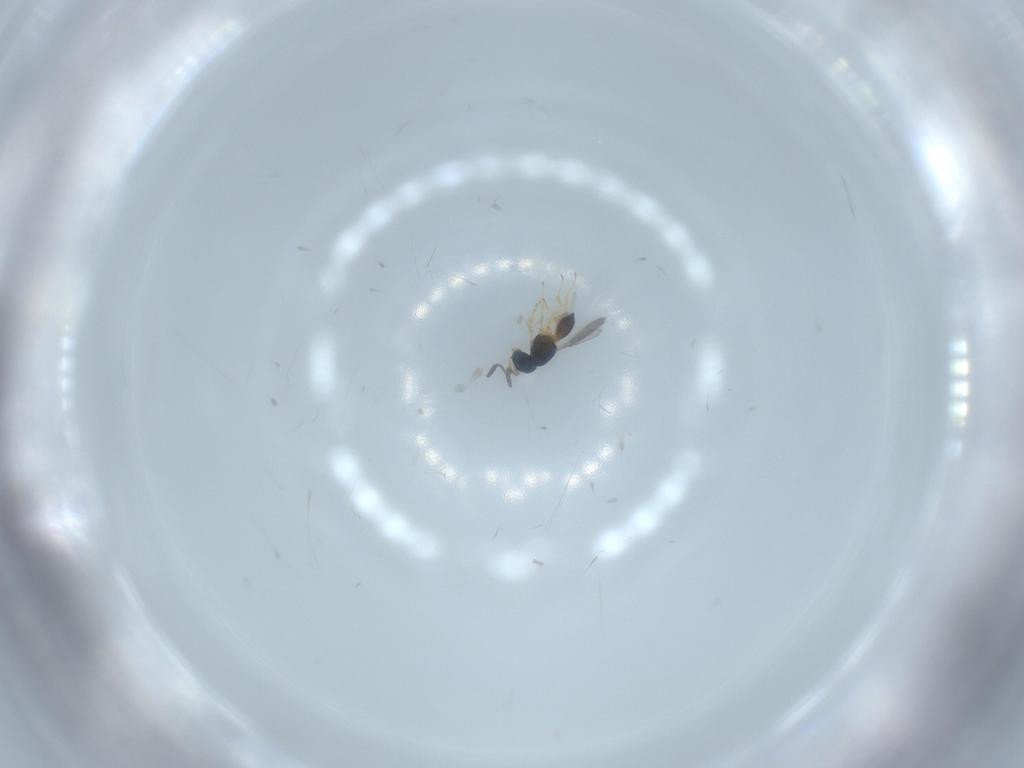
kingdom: Animalia
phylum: Arthropoda
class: Insecta
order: Hymenoptera
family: Scelionidae
